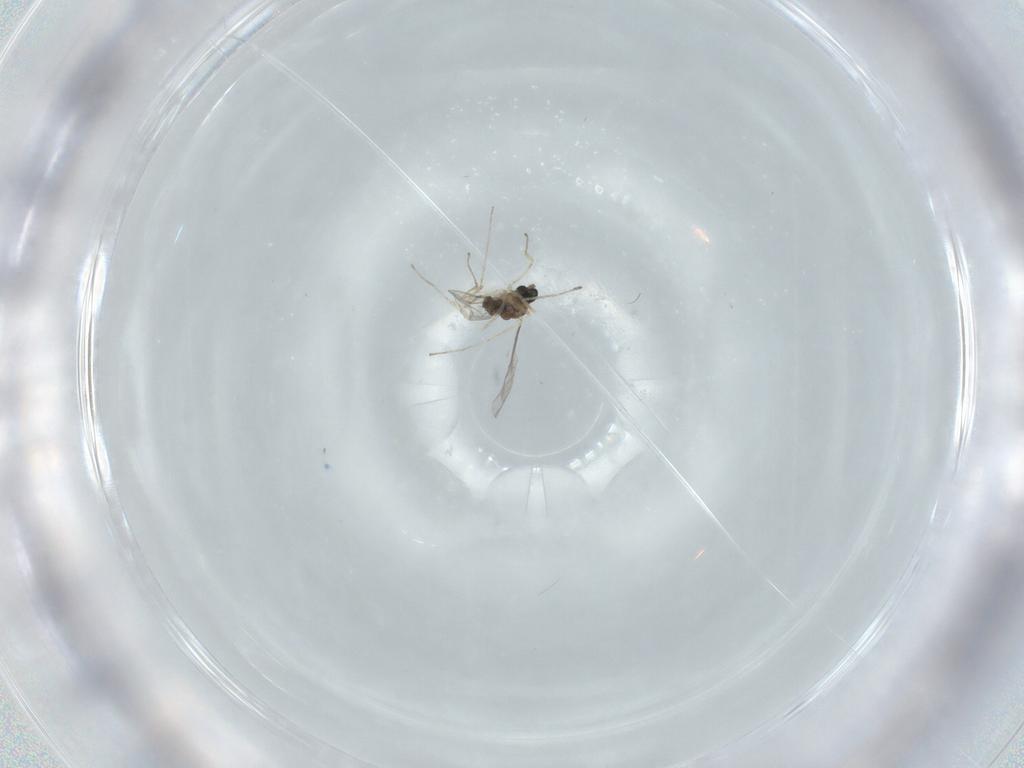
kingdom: Animalia
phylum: Arthropoda
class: Insecta
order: Diptera
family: Cecidomyiidae
